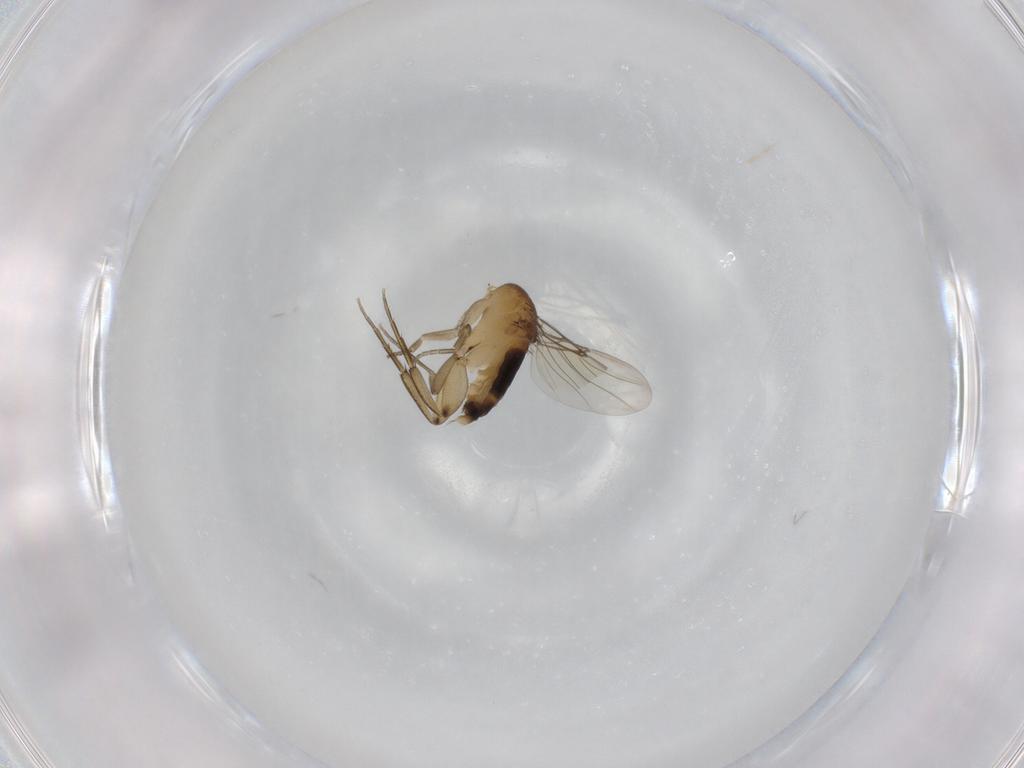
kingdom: Animalia
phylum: Arthropoda
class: Insecta
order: Diptera
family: Phoridae
